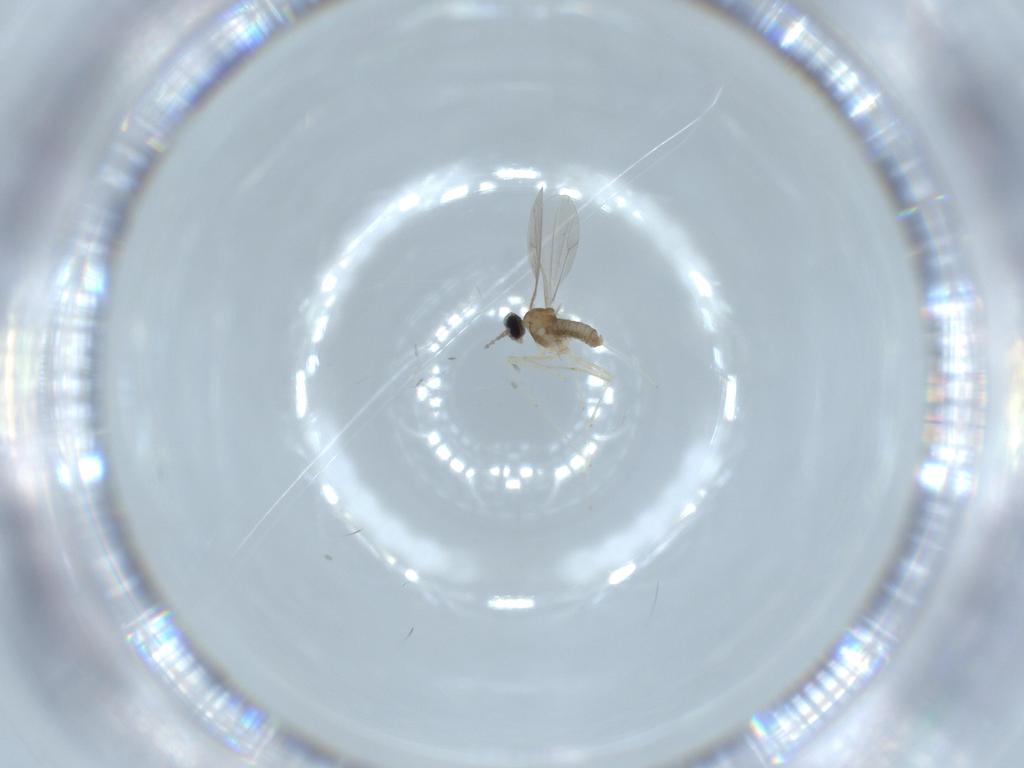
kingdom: Animalia
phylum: Arthropoda
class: Insecta
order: Diptera
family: Cecidomyiidae
